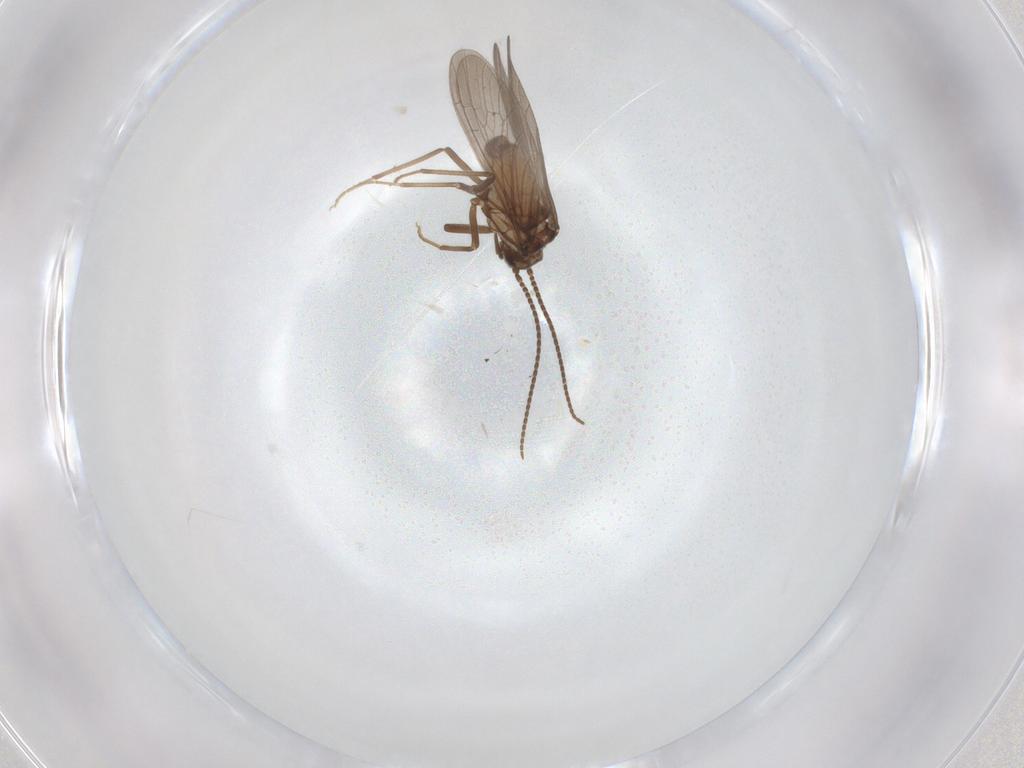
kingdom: Animalia
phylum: Arthropoda
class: Insecta
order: Neuroptera
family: Coniopterygidae
